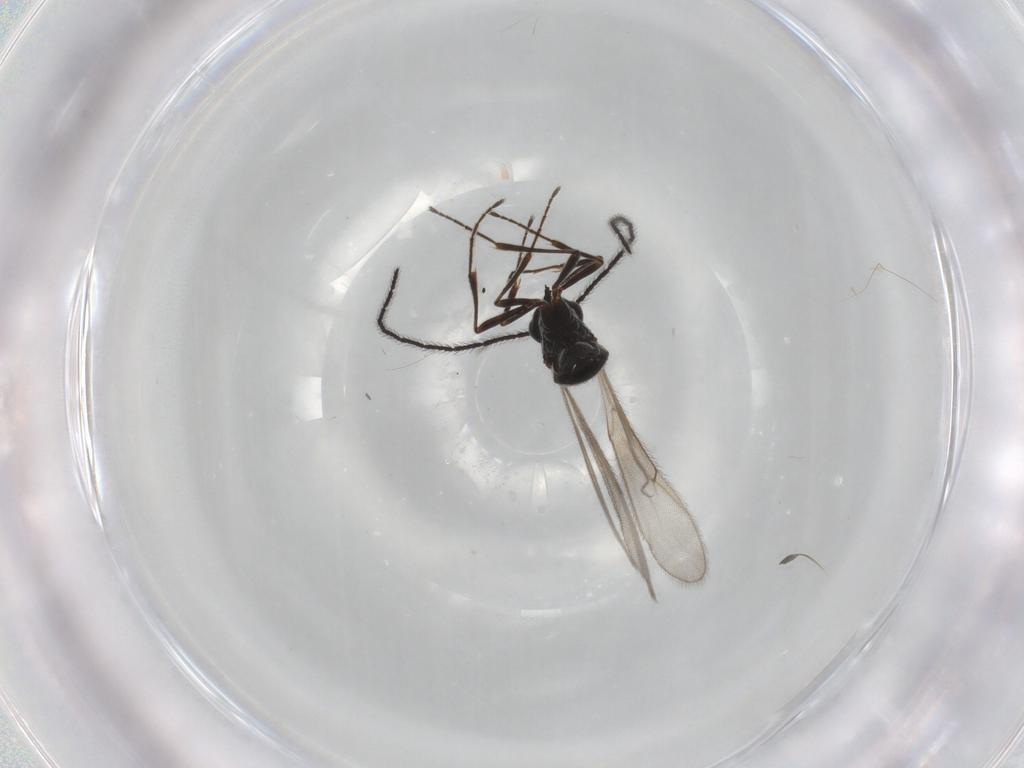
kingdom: Animalia
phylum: Arthropoda
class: Insecta
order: Hymenoptera
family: Scelionidae
